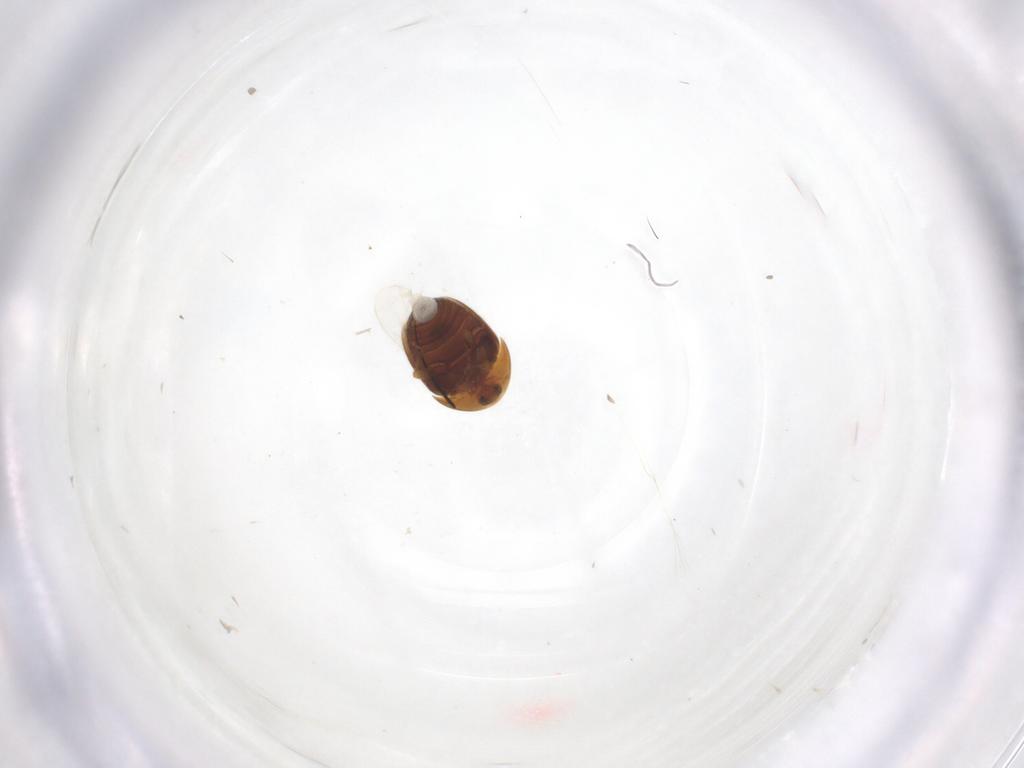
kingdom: Animalia
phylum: Arthropoda
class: Insecta
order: Coleoptera
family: Corylophidae
